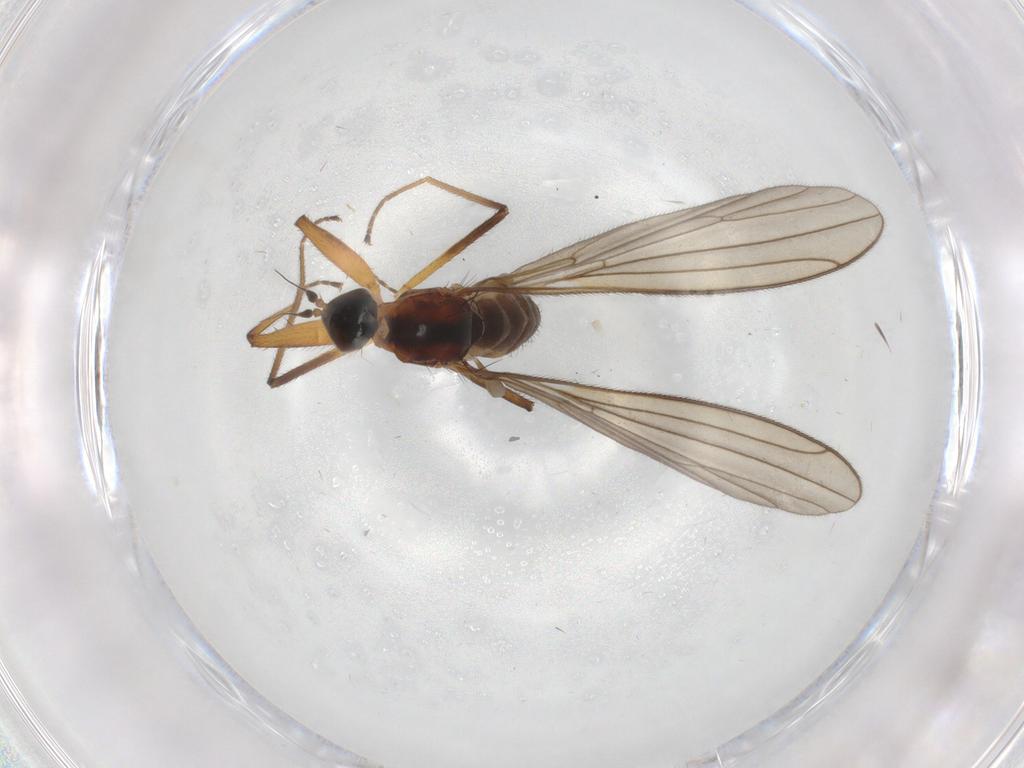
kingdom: Animalia
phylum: Arthropoda
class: Insecta
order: Diptera
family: Empididae
